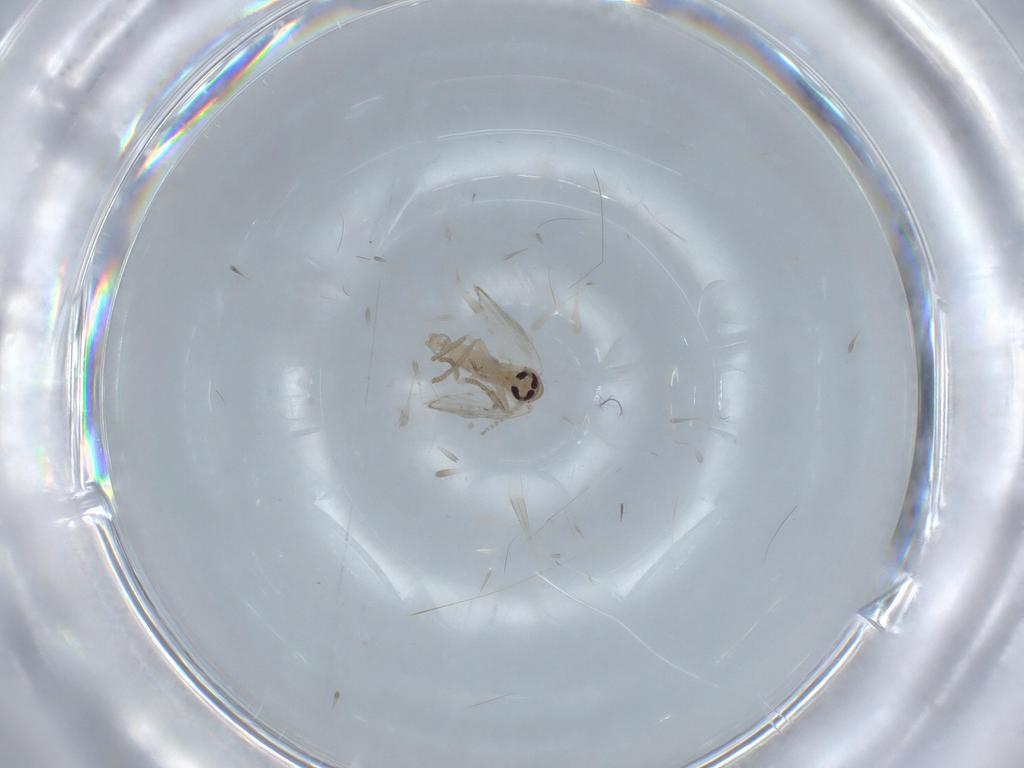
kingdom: Animalia
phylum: Arthropoda
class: Insecta
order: Diptera
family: Psychodidae
